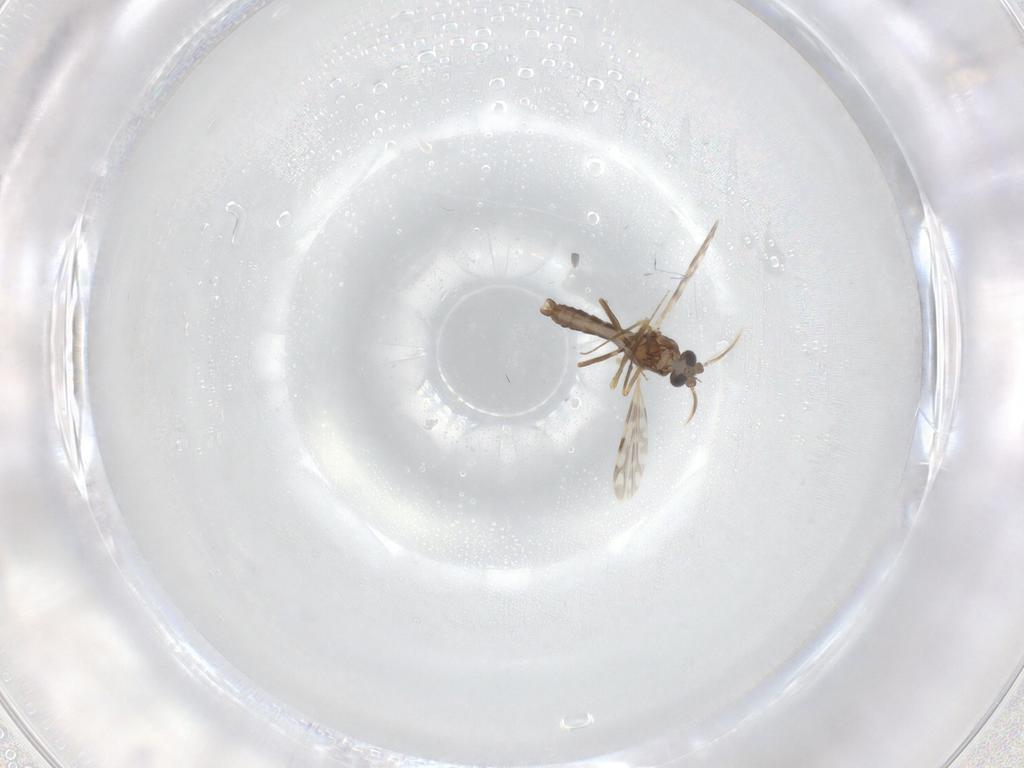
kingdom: Animalia
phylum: Arthropoda
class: Insecta
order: Diptera
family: Ceratopogonidae
